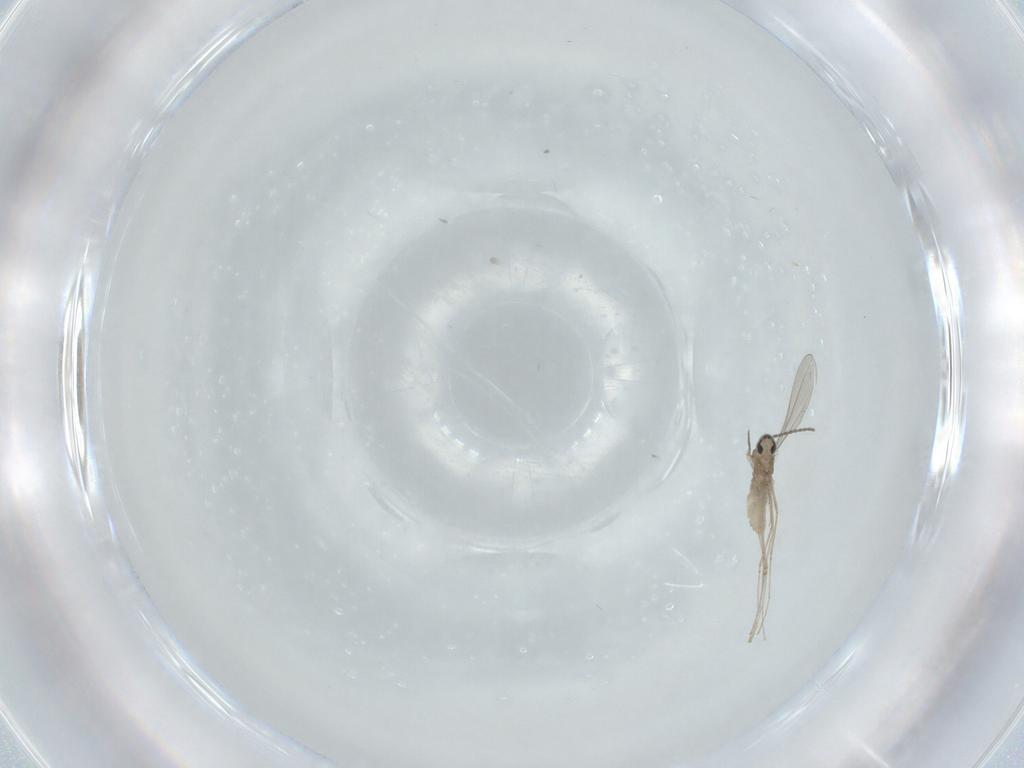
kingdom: Animalia
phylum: Arthropoda
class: Insecta
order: Diptera
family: Cecidomyiidae
